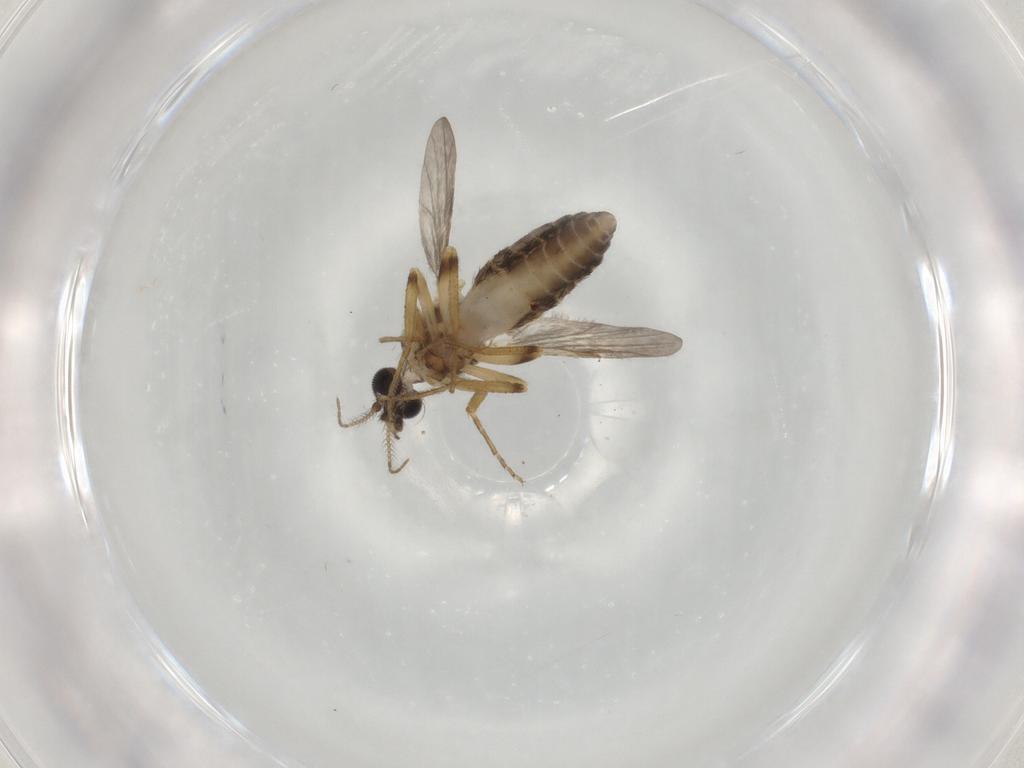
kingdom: Animalia
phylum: Arthropoda
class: Insecta
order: Diptera
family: Ceratopogonidae
